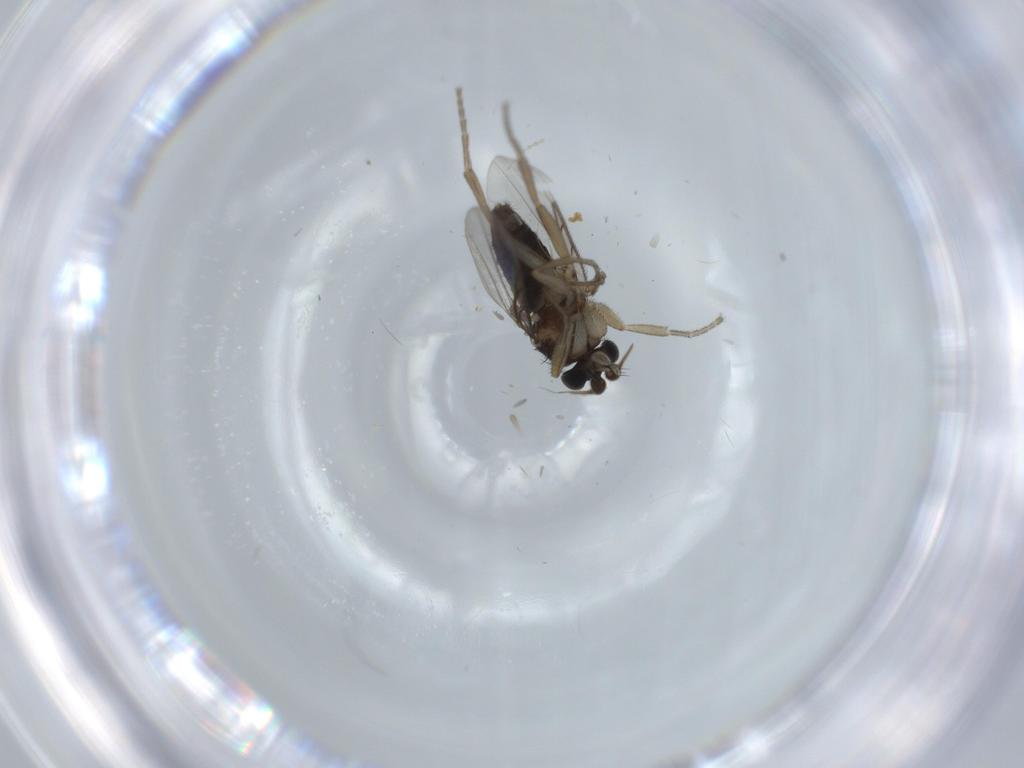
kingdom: Animalia
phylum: Arthropoda
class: Insecta
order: Diptera
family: Phoridae
